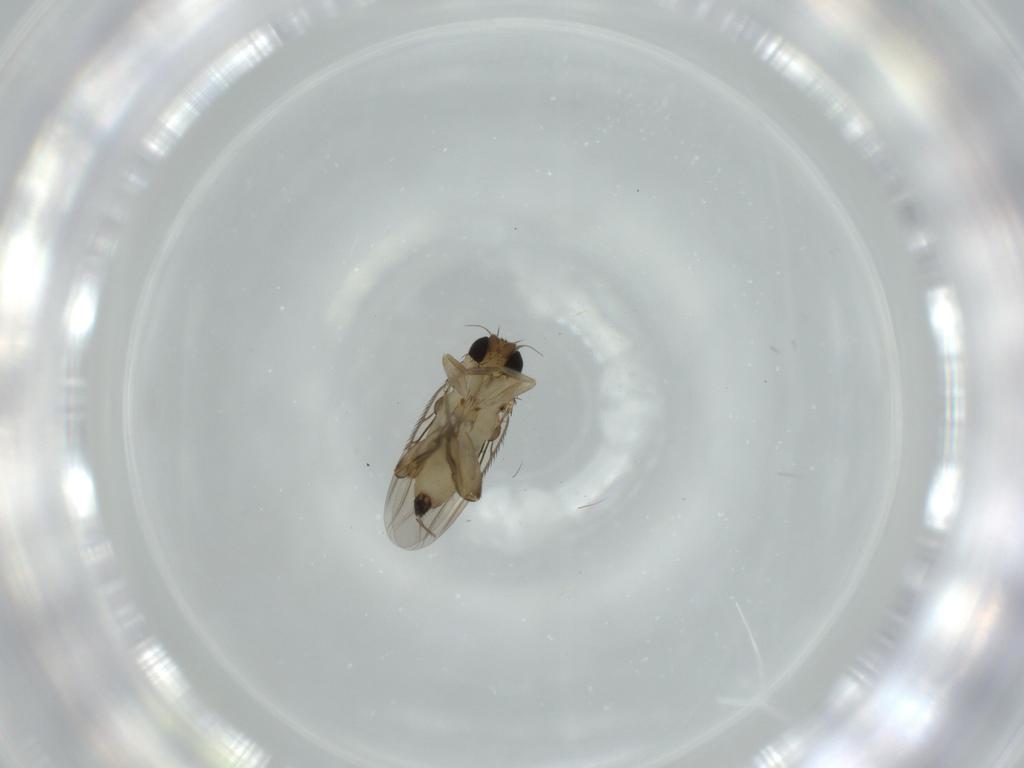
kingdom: Animalia
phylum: Arthropoda
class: Insecta
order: Diptera
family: Phoridae
